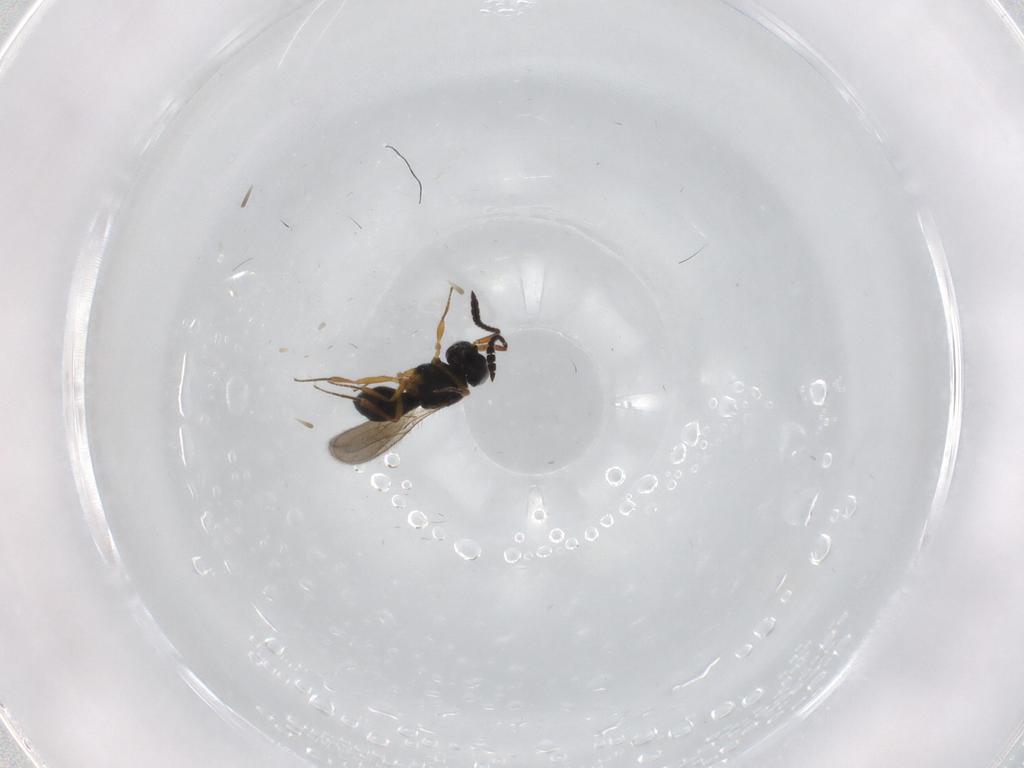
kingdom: Animalia
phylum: Arthropoda
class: Insecta
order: Hymenoptera
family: Scelionidae
